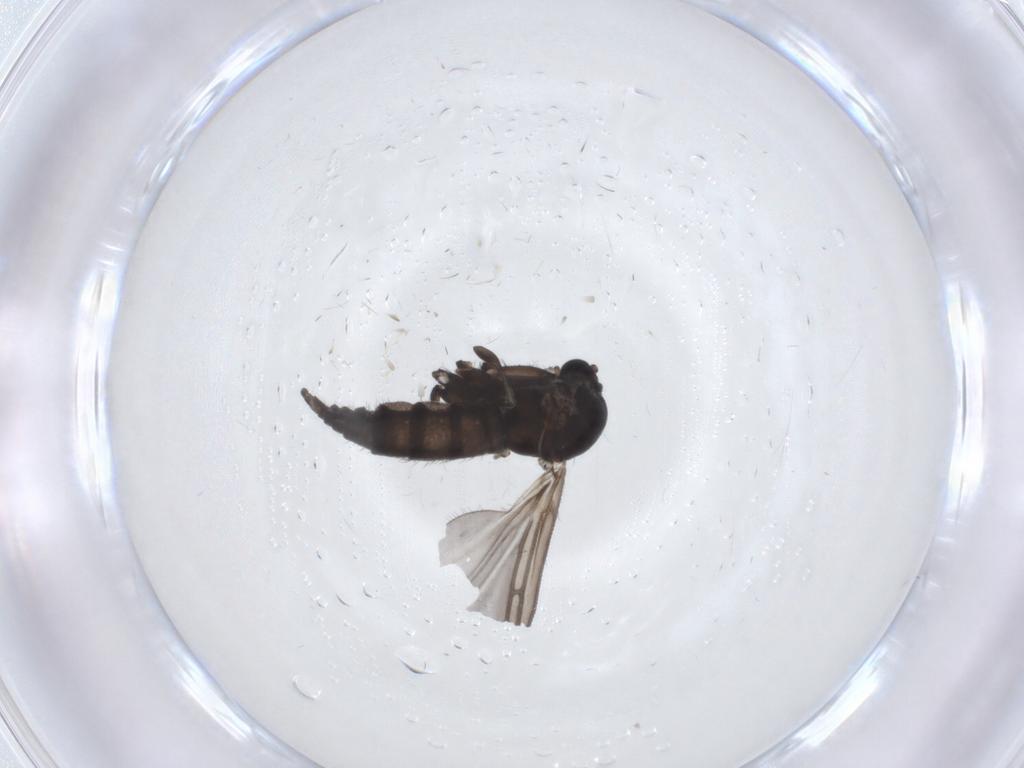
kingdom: Animalia
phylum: Arthropoda
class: Insecta
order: Diptera
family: Sciaridae
